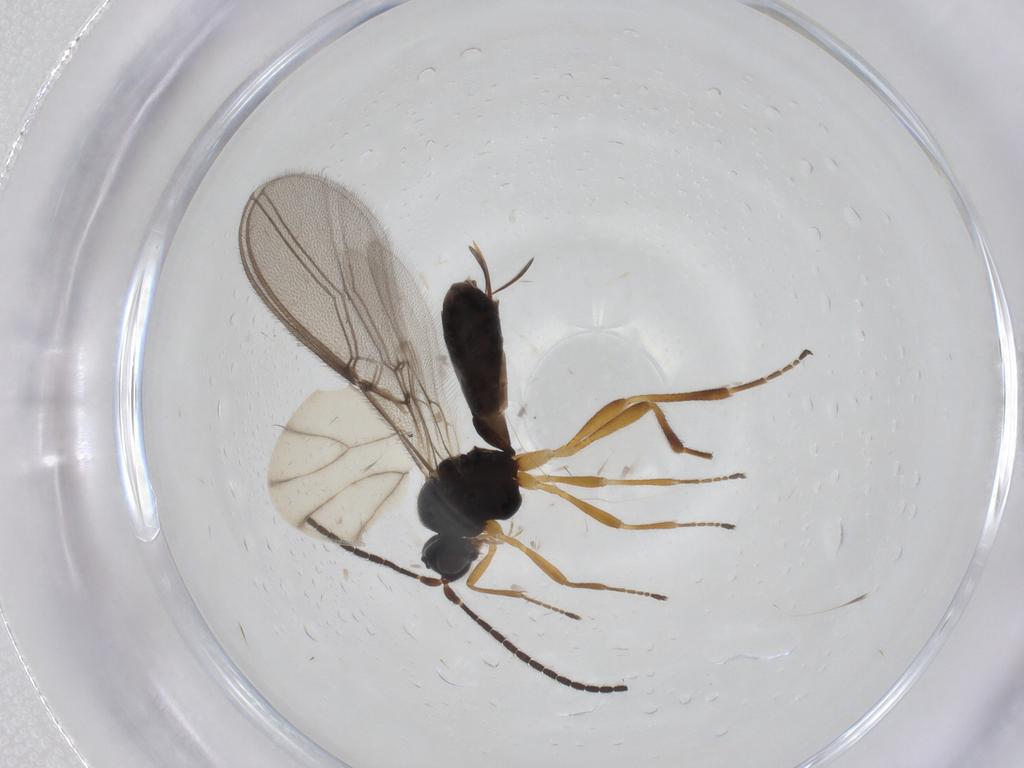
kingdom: Animalia
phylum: Arthropoda
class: Insecta
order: Hymenoptera
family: Braconidae
